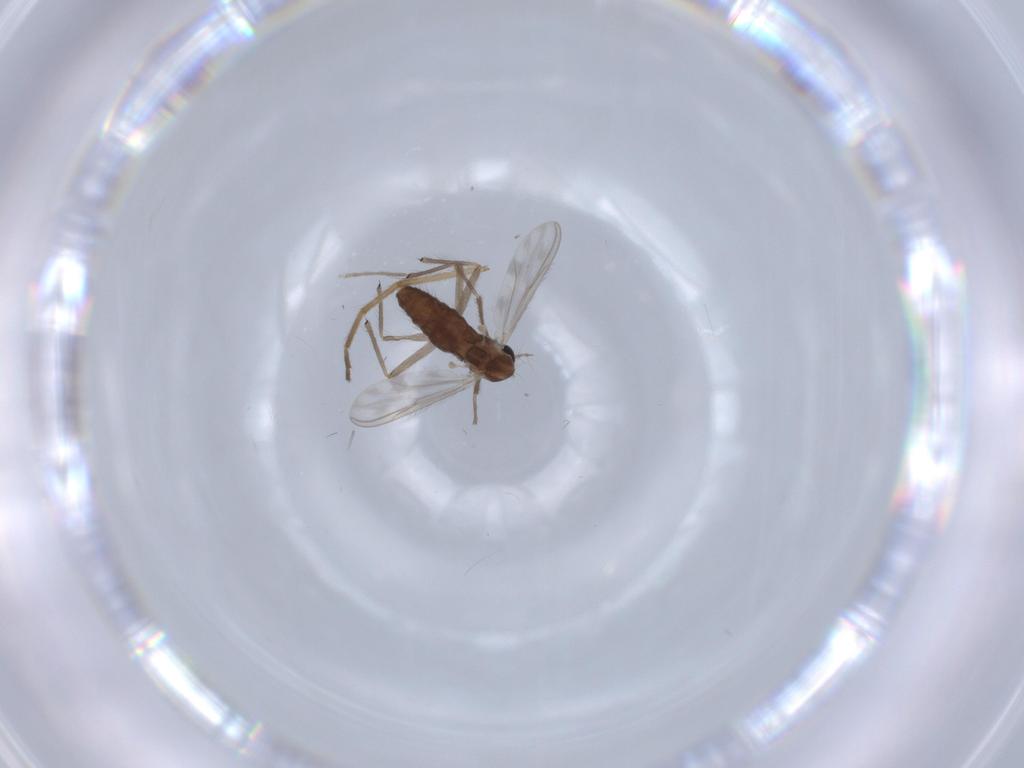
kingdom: Animalia
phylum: Arthropoda
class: Insecta
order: Diptera
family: Chironomidae
